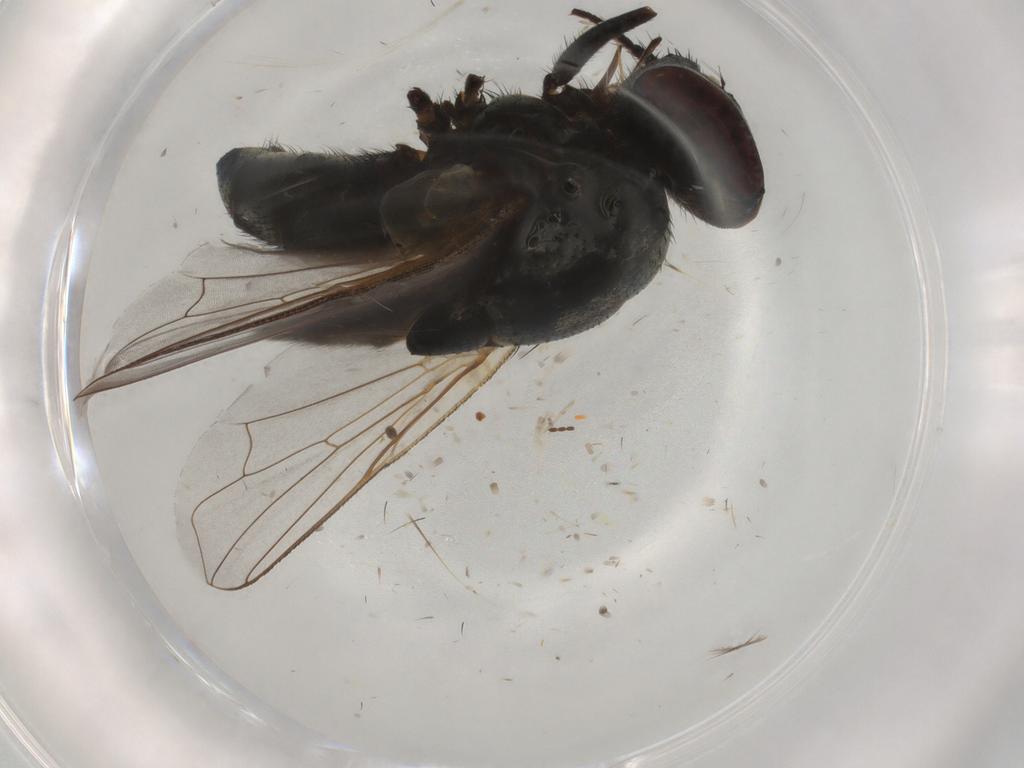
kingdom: Animalia
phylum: Arthropoda
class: Insecta
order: Diptera
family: Muscidae
